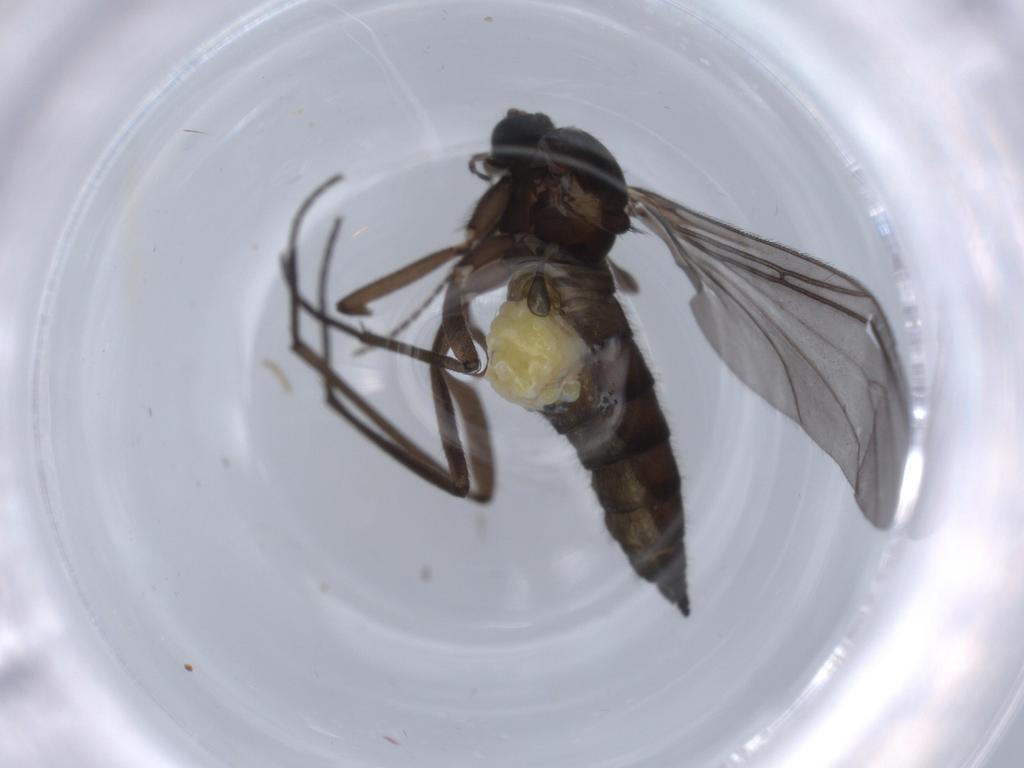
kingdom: Animalia
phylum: Arthropoda
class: Insecta
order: Diptera
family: Sciaridae
